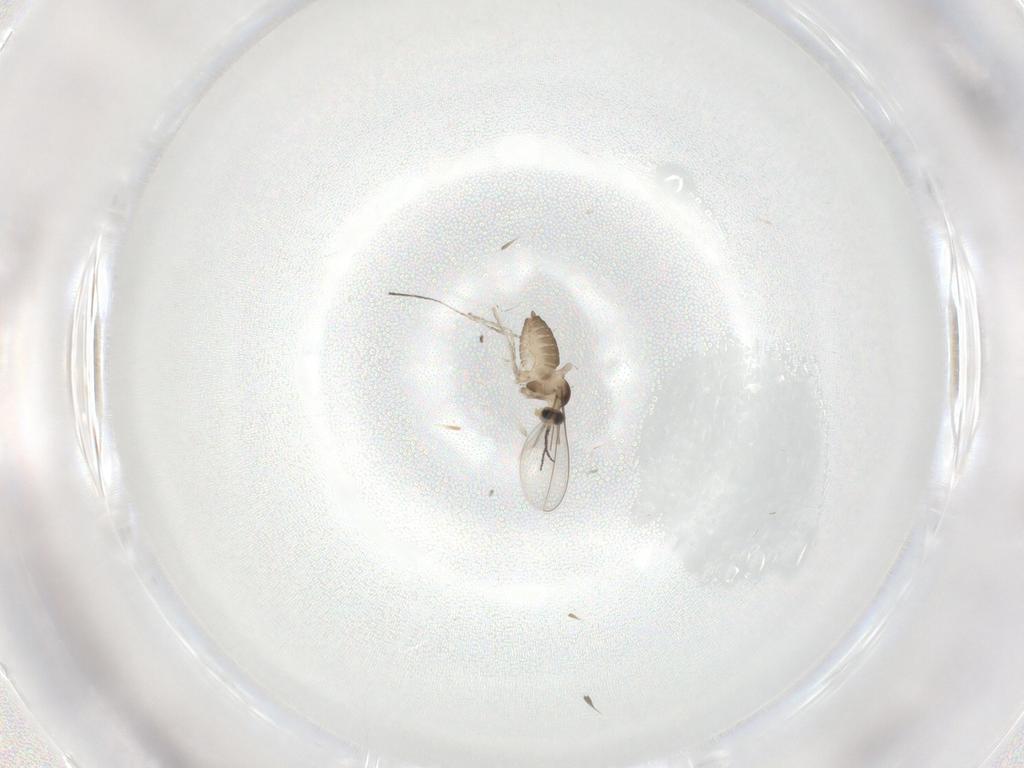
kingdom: Animalia
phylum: Arthropoda
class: Insecta
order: Diptera
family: Cecidomyiidae
